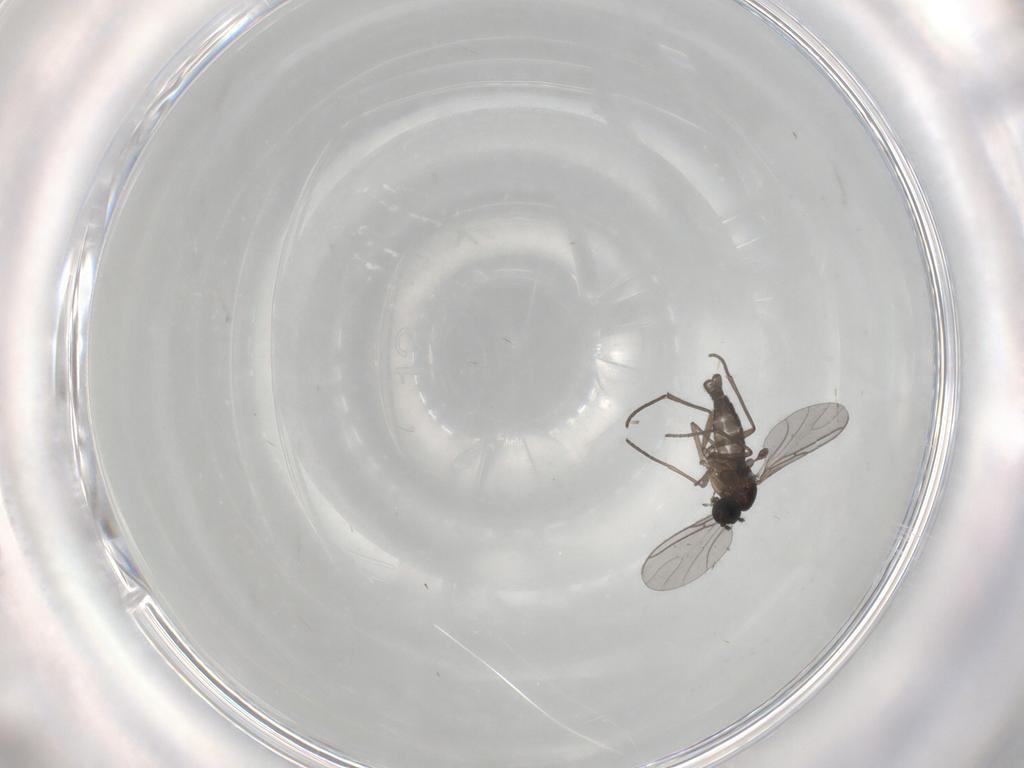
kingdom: Animalia
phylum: Arthropoda
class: Insecta
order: Diptera
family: Sciaridae
